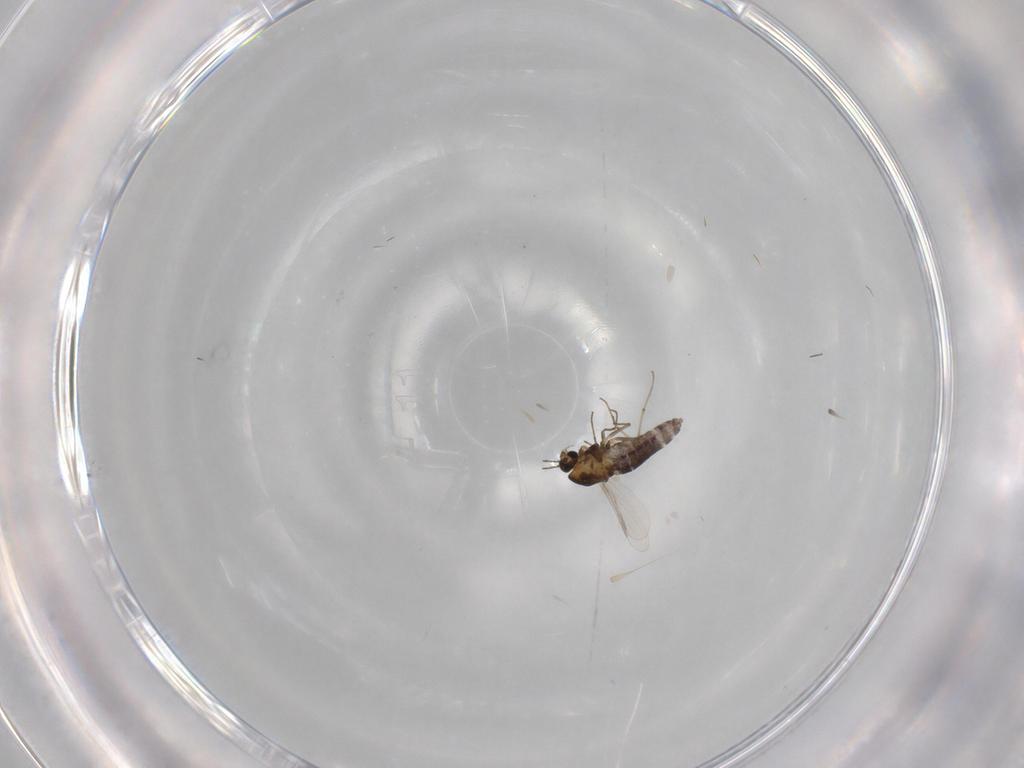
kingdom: Animalia
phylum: Arthropoda
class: Insecta
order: Diptera
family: Chironomidae
